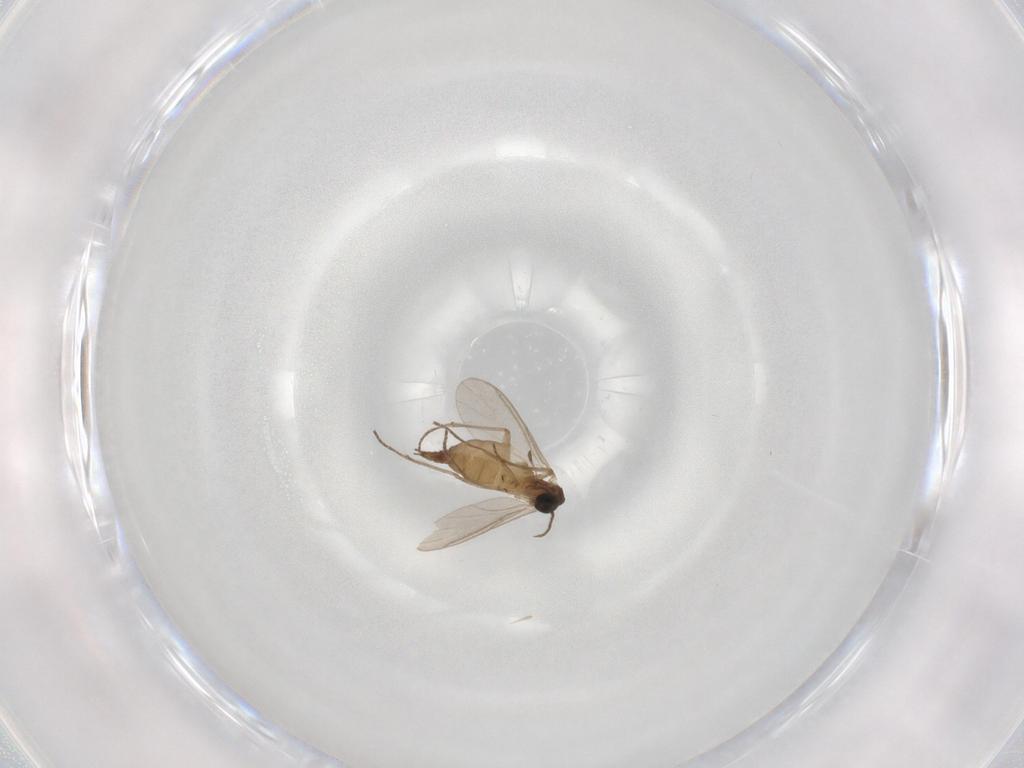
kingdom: Animalia
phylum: Arthropoda
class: Insecta
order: Diptera
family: Sciaridae
